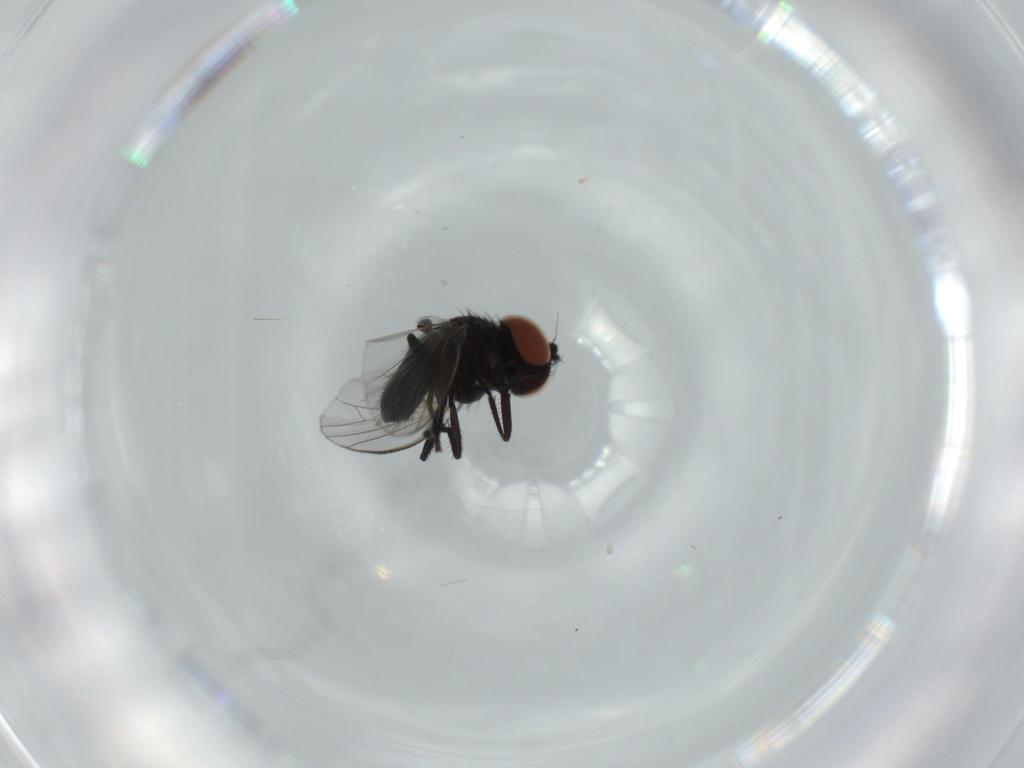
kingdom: Animalia
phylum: Arthropoda
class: Insecta
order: Diptera
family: Milichiidae
